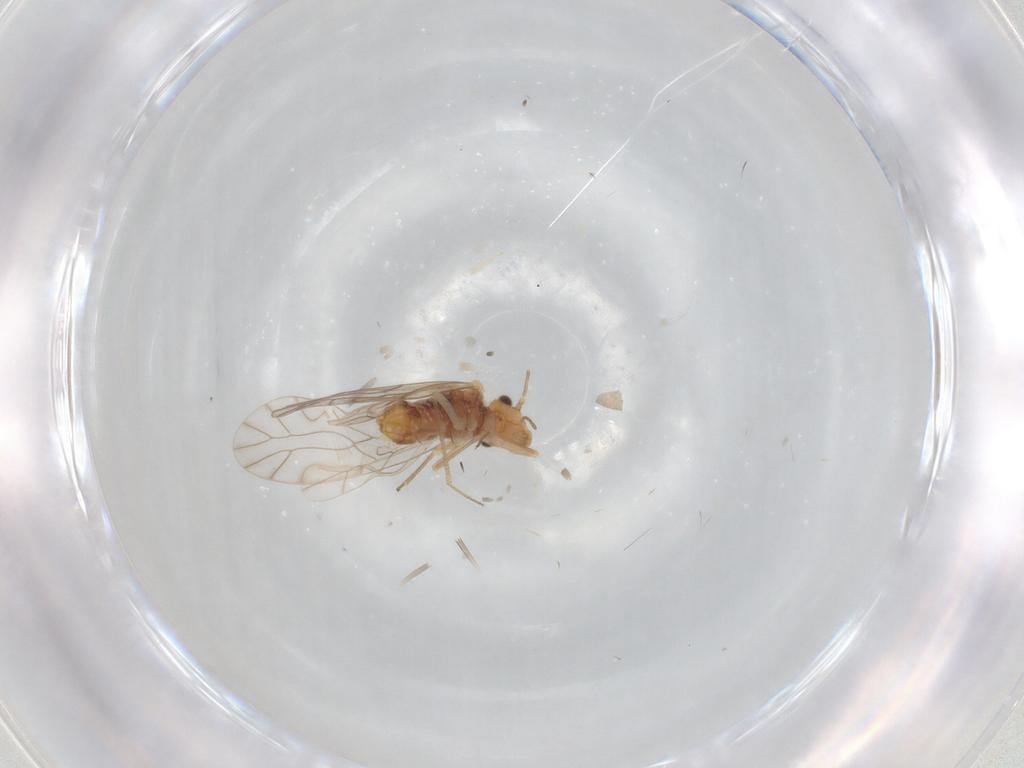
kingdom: Animalia
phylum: Arthropoda
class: Insecta
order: Psocodea
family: Lachesillidae
